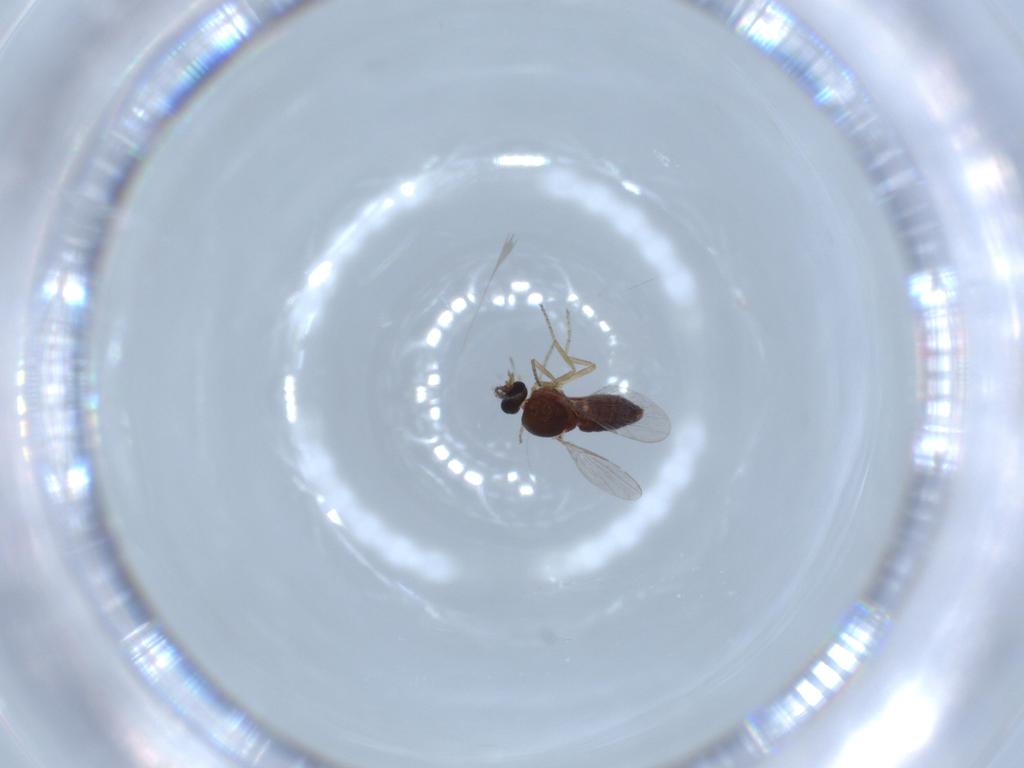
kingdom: Animalia
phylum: Arthropoda
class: Insecta
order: Diptera
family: Ceratopogonidae
